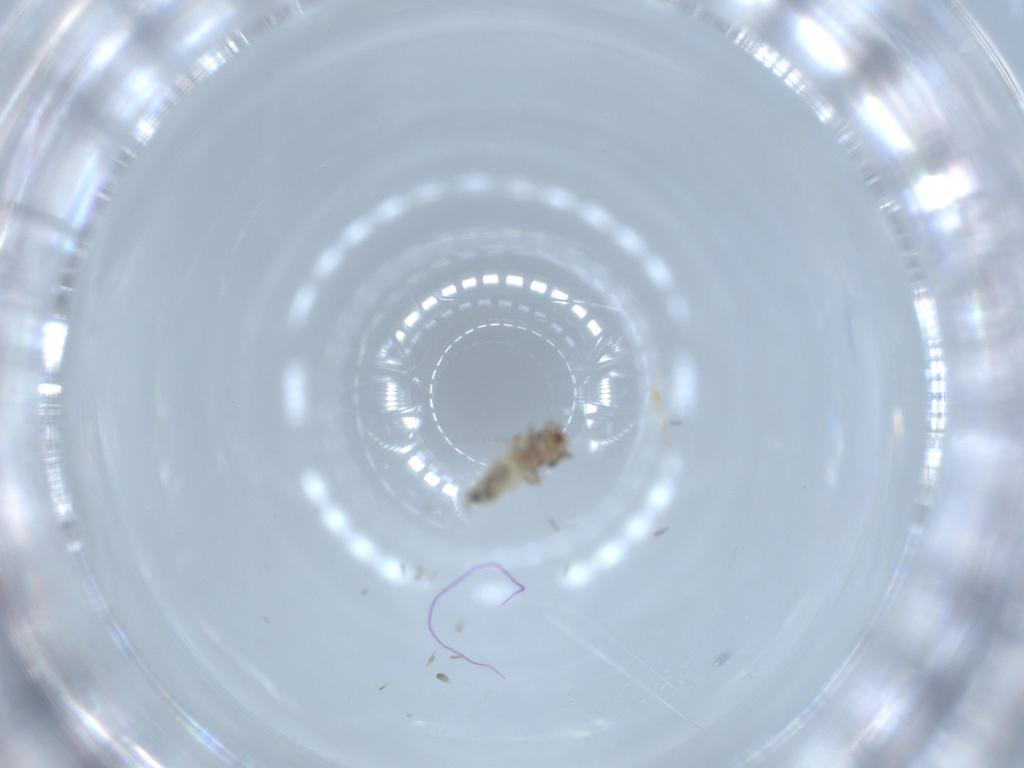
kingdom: Animalia
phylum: Arthropoda
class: Insecta
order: Psocodea
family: Lepidopsocidae
